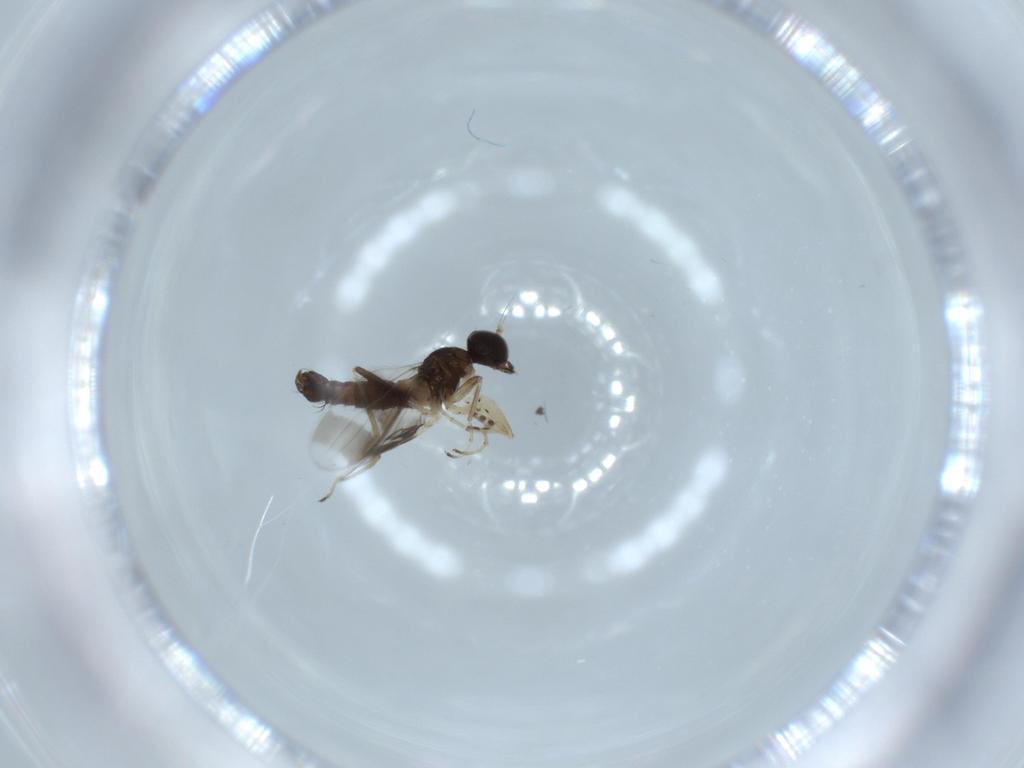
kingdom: Animalia
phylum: Arthropoda
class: Insecta
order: Diptera
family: Hybotidae
